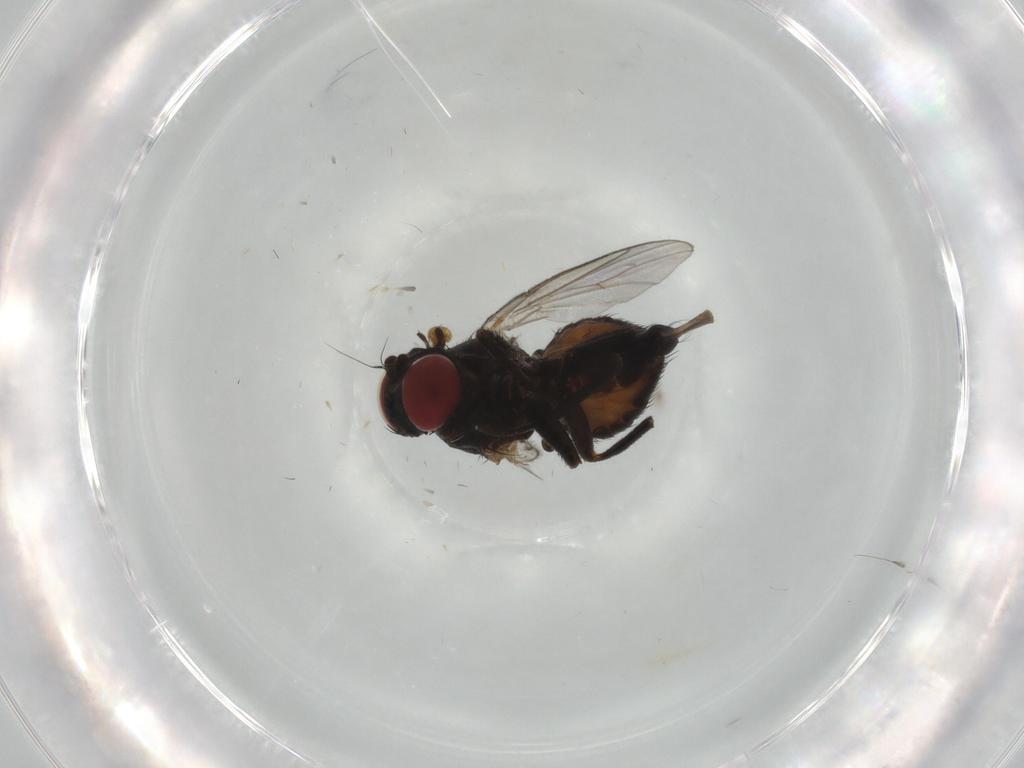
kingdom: Animalia
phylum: Arthropoda
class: Insecta
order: Diptera
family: Agromyzidae
